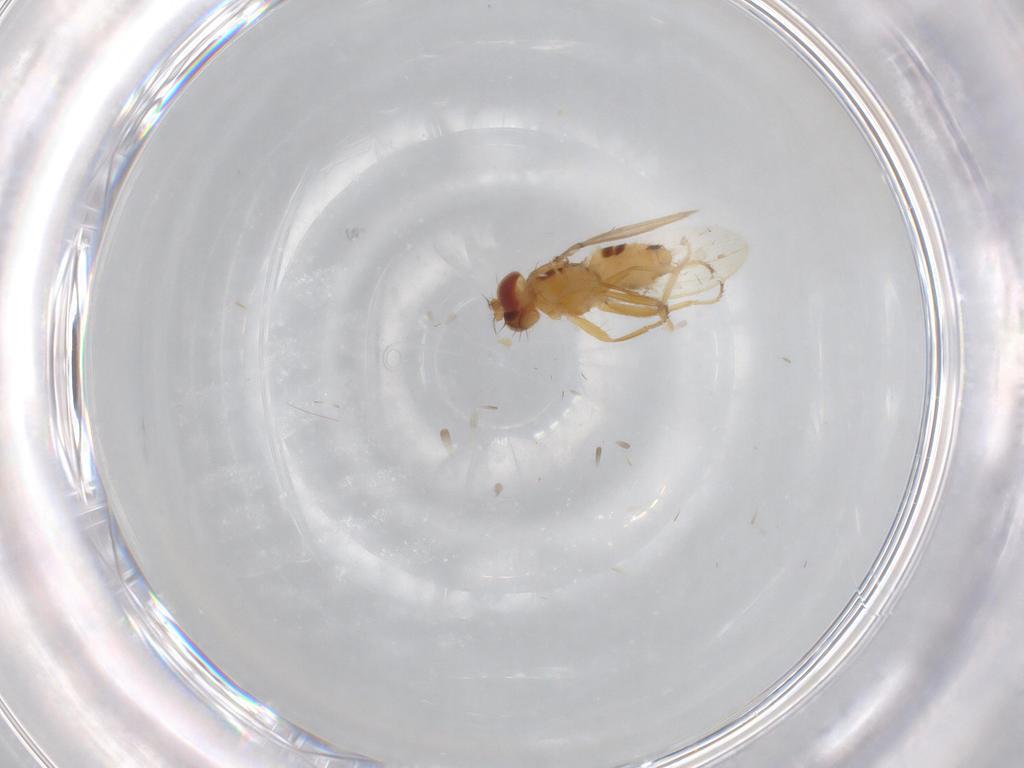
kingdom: Animalia
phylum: Arthropoda
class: Insecta
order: Diptera
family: Periscelididae
